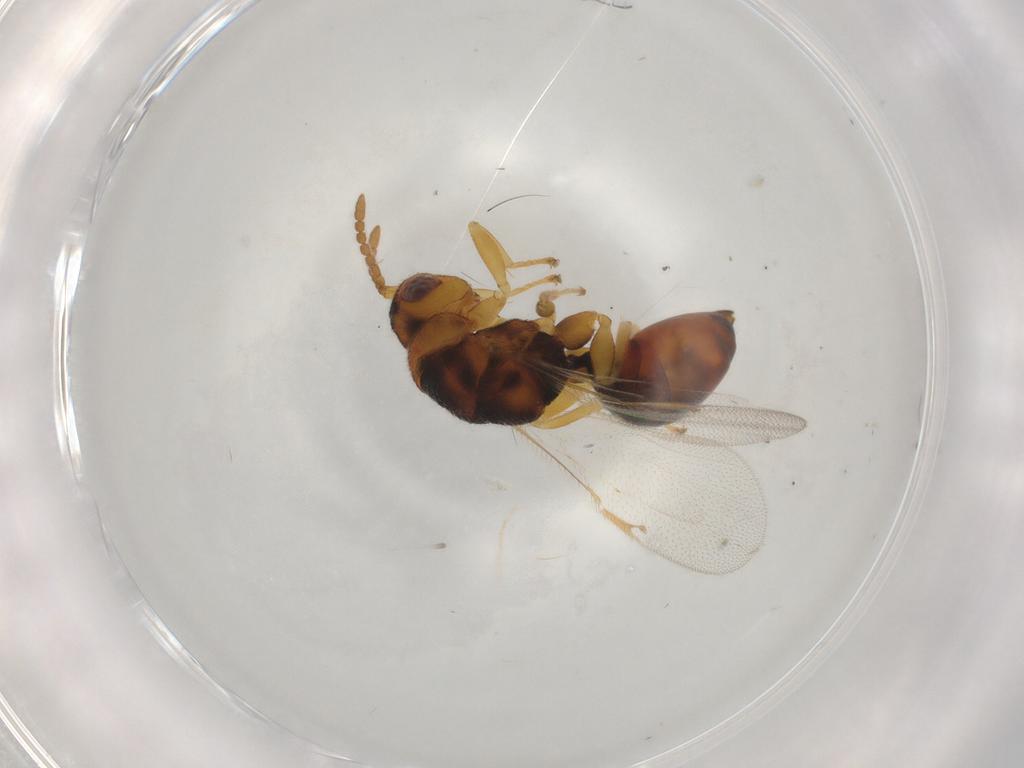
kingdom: Animalia
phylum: Arthropoda
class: Insecta
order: Hymenoptera
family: Eurytomidae
